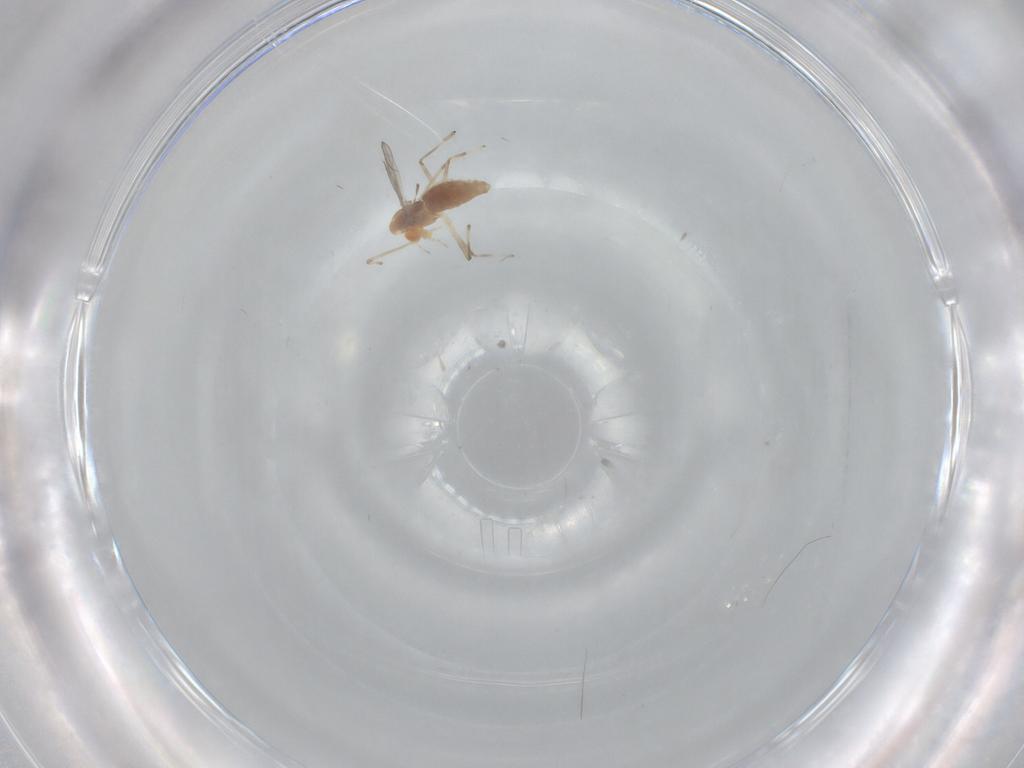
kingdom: Animalia
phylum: Arthropoda
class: Insecta
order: Diptera
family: Chironomidae
